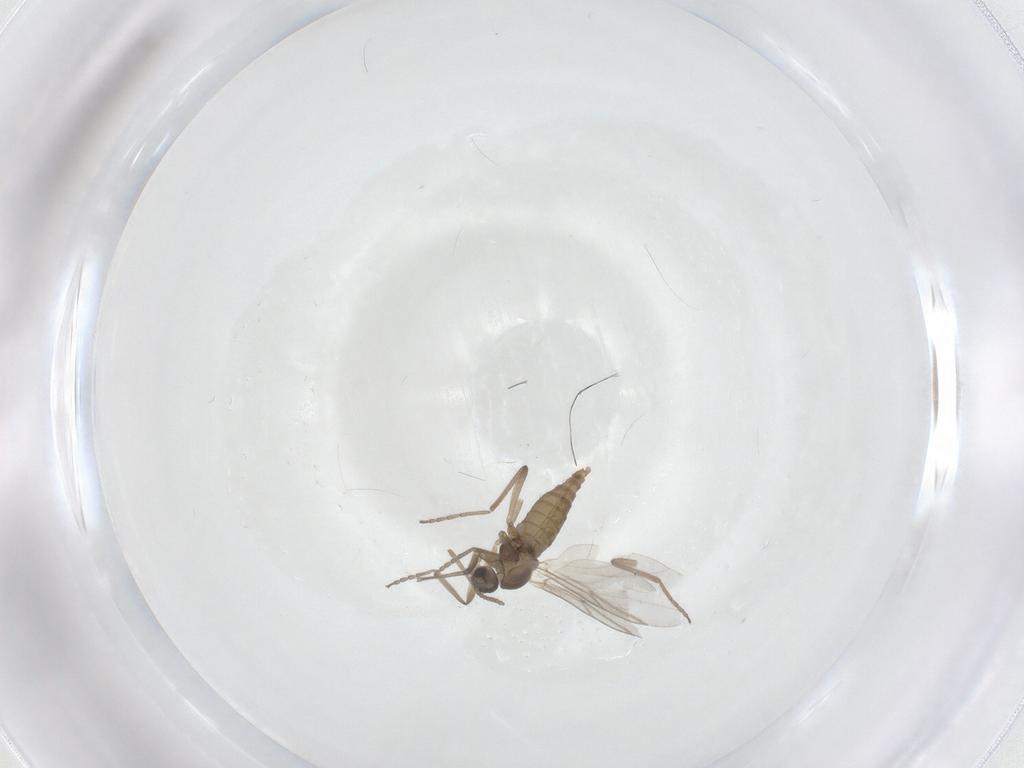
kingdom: Animalia
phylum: Arthropoda
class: Insecta
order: Diptera
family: Cecidomyiidae
